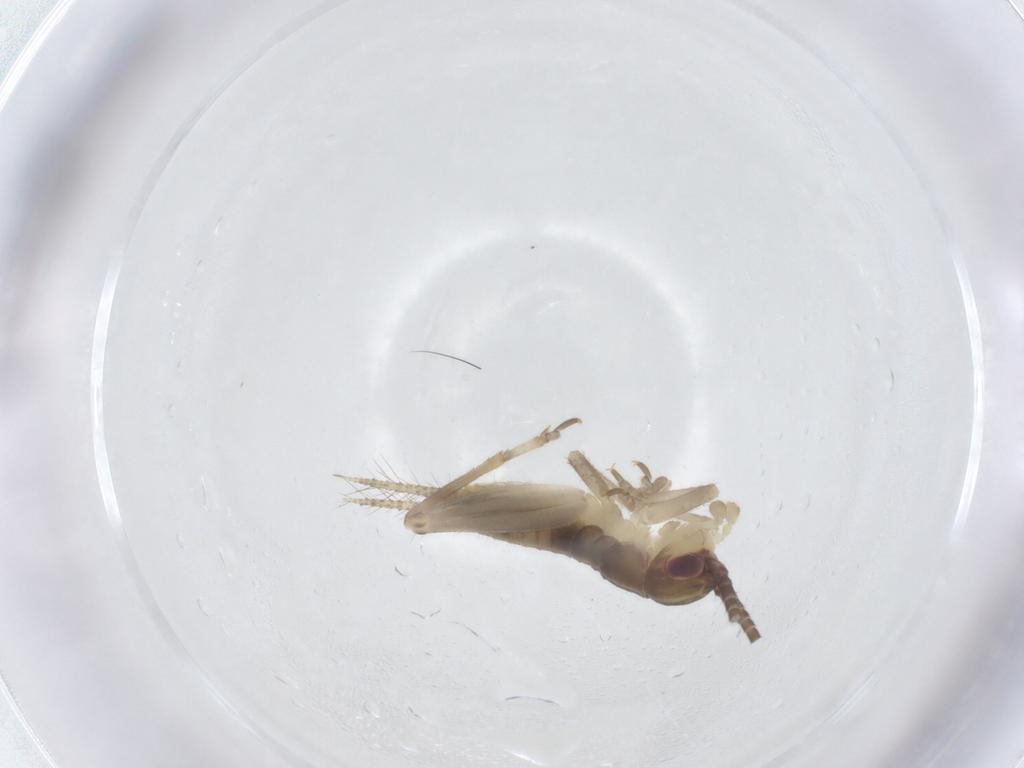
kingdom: Animalia
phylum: Arthropoda
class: Insecta
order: Orthoptera
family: Gryllidae
